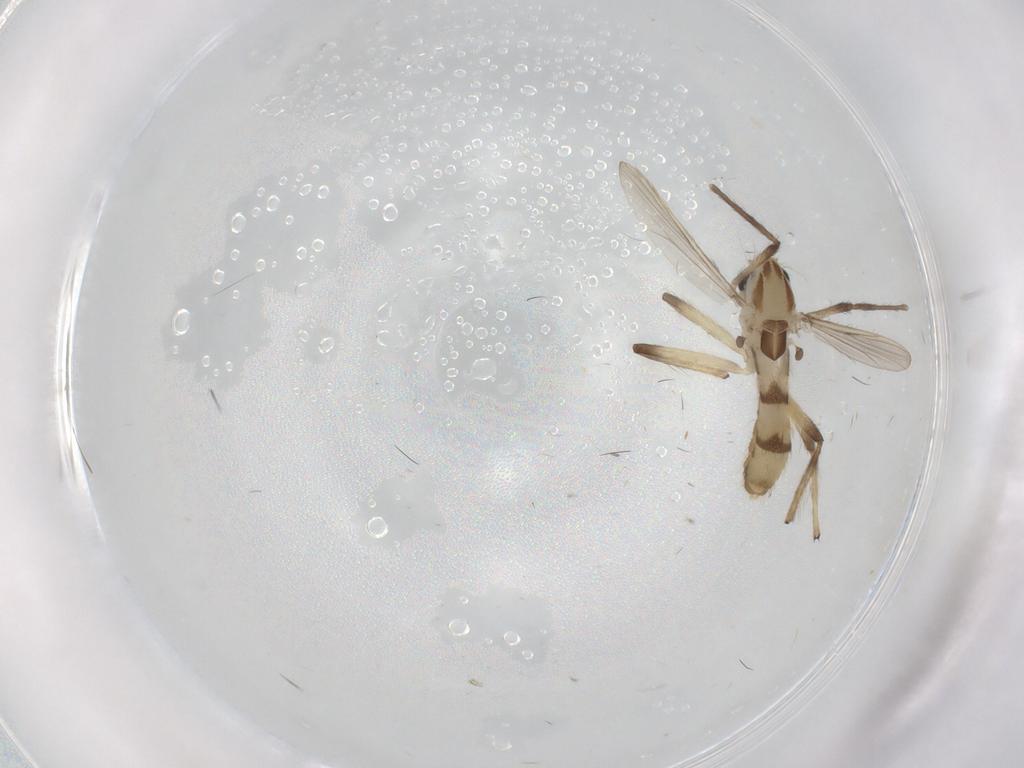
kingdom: Animalia
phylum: Arthropoda
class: Insecta
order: Diptera
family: Chironomidae
